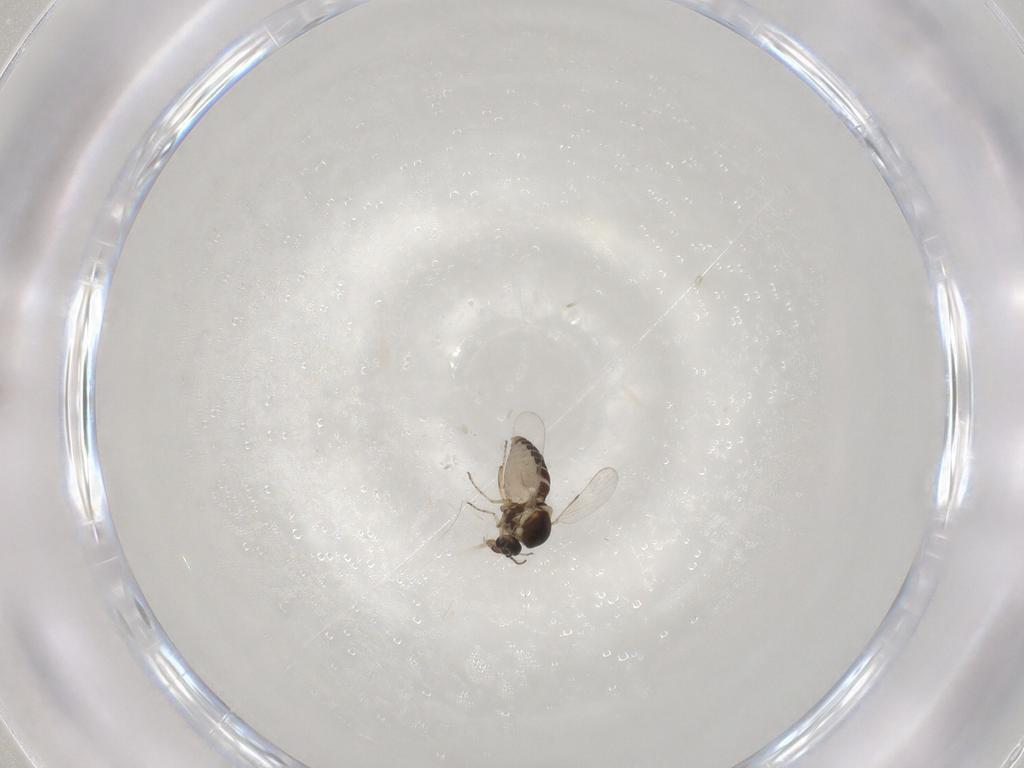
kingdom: Animalia
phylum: Arthropoda
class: Insecta
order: Diptera
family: Ceratopogonidae
